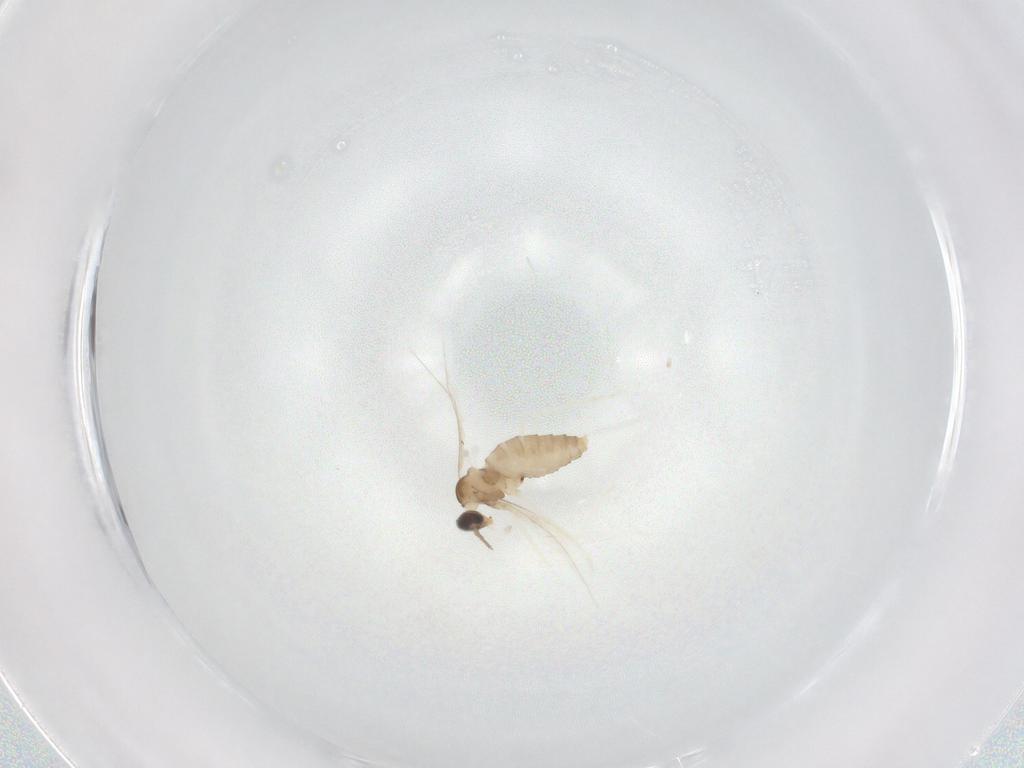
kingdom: Animalia
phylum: Arthropoda
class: Insecta
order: Diptera
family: Cecidomyiidae
